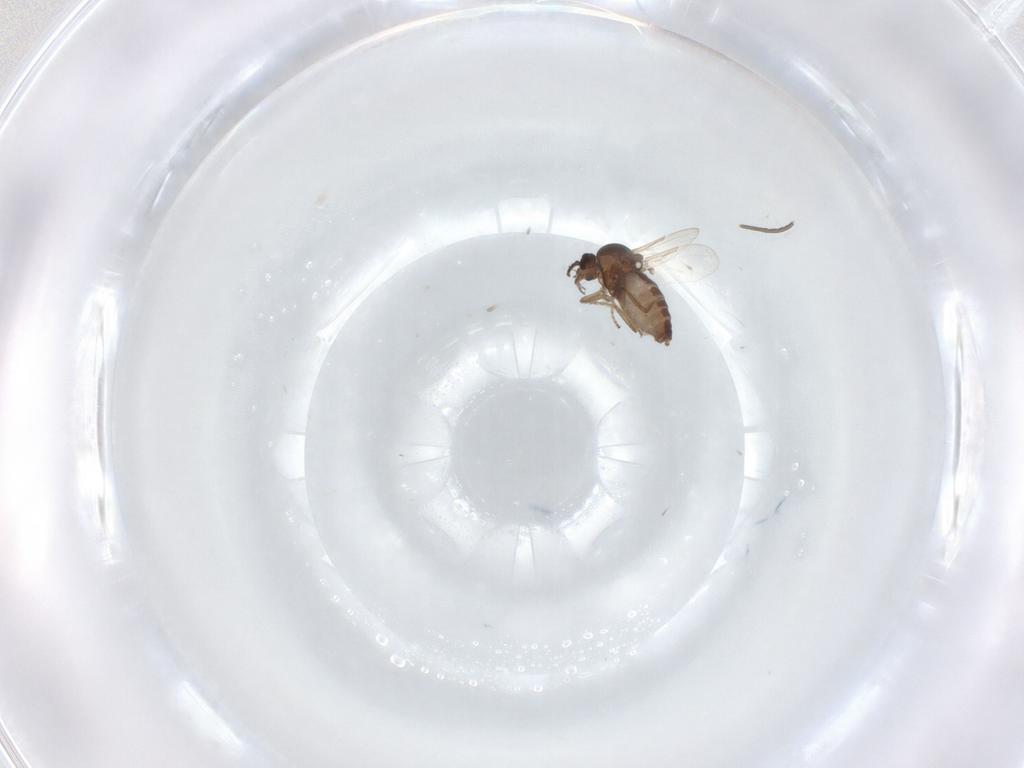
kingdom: Animalia
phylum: Arthropoda
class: Insecta
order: Diptera
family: Ceratopogonidae
